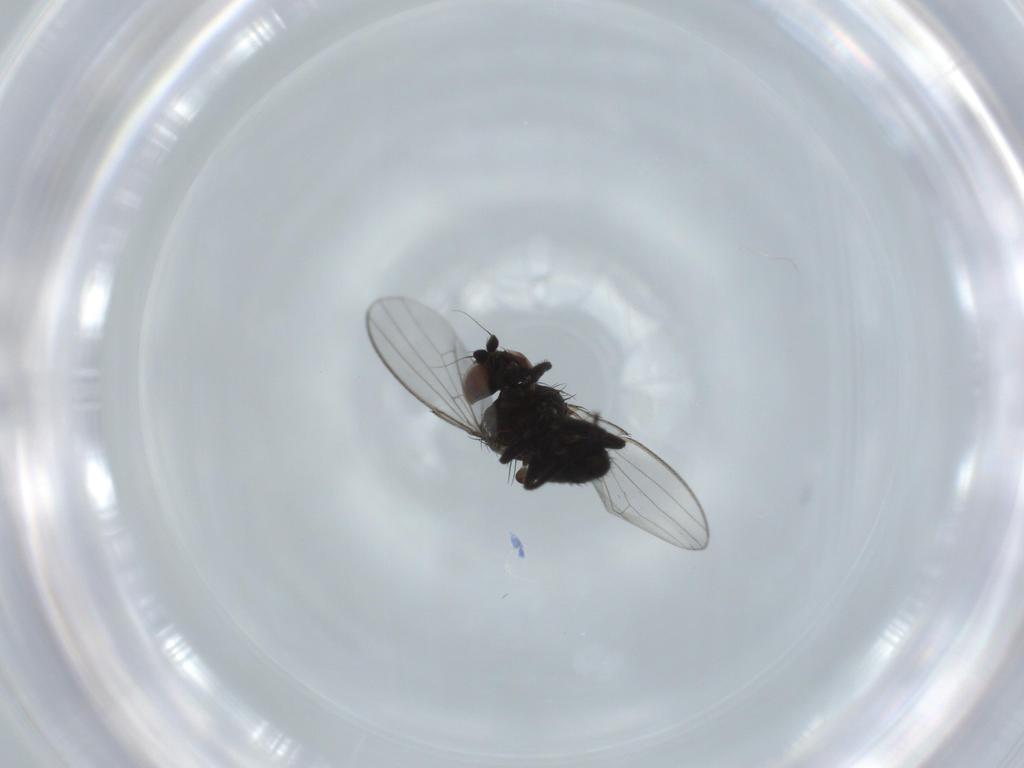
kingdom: Animalia
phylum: Arthropoda
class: Insecta
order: Diptera
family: Milichiidae
